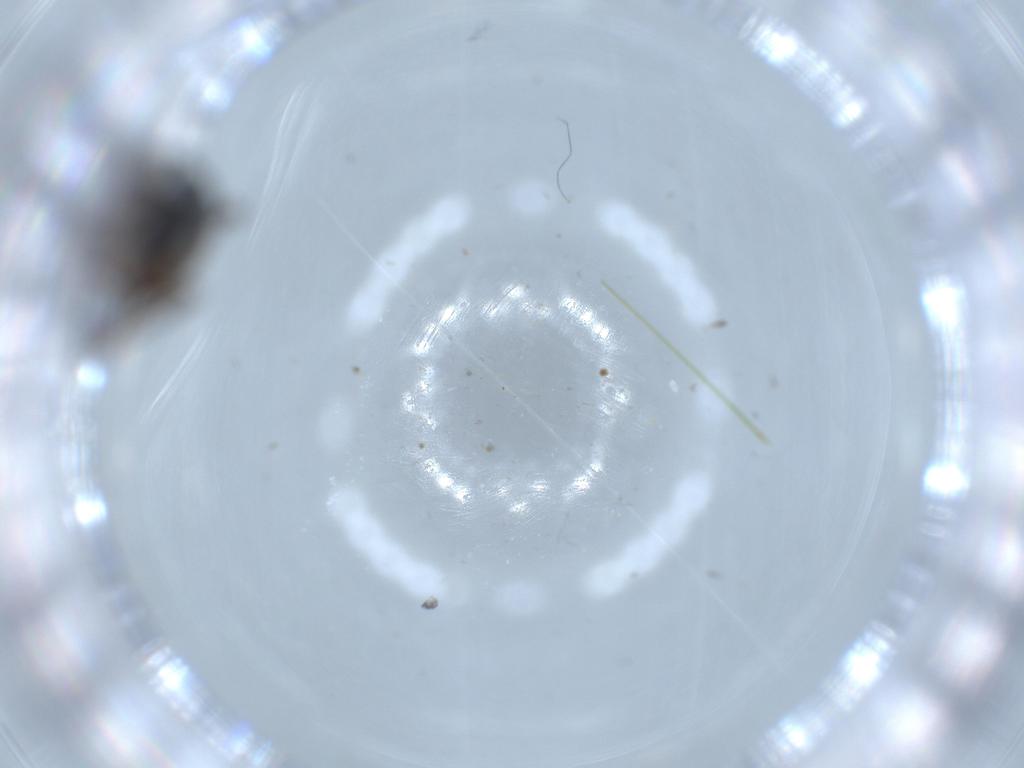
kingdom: Animalia
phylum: Arthropoda
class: Insecta
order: Diptera
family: Sciaridae
